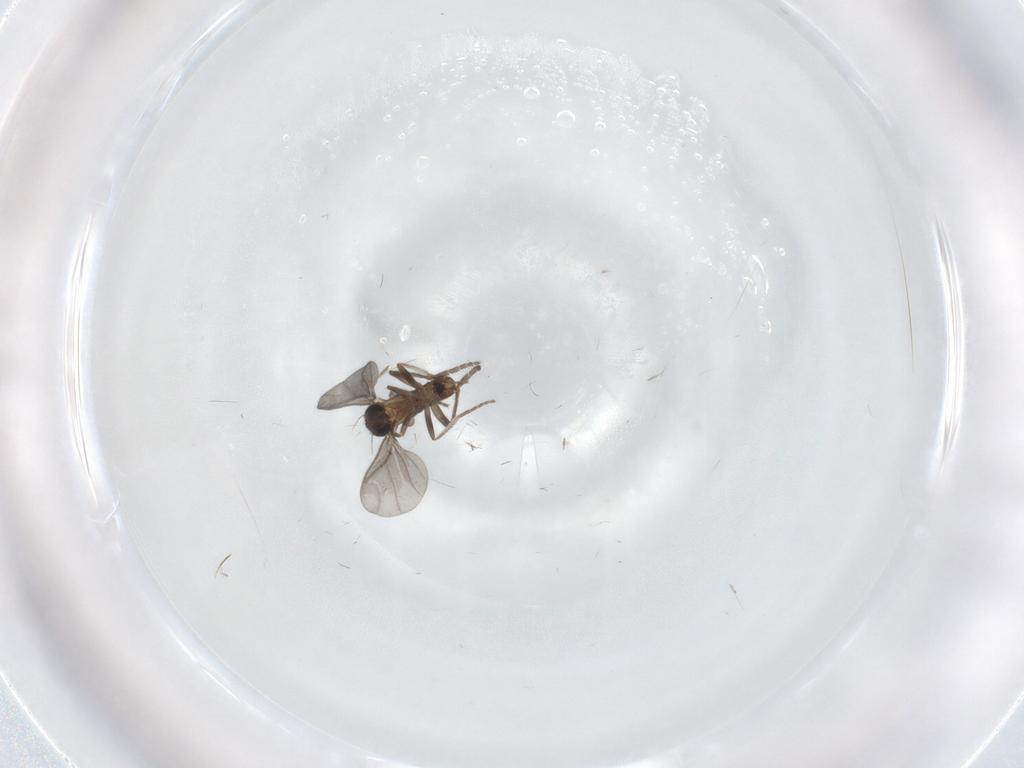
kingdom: Animalia
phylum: Arthropoda
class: Insecta
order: Diptera
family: Phoridae
